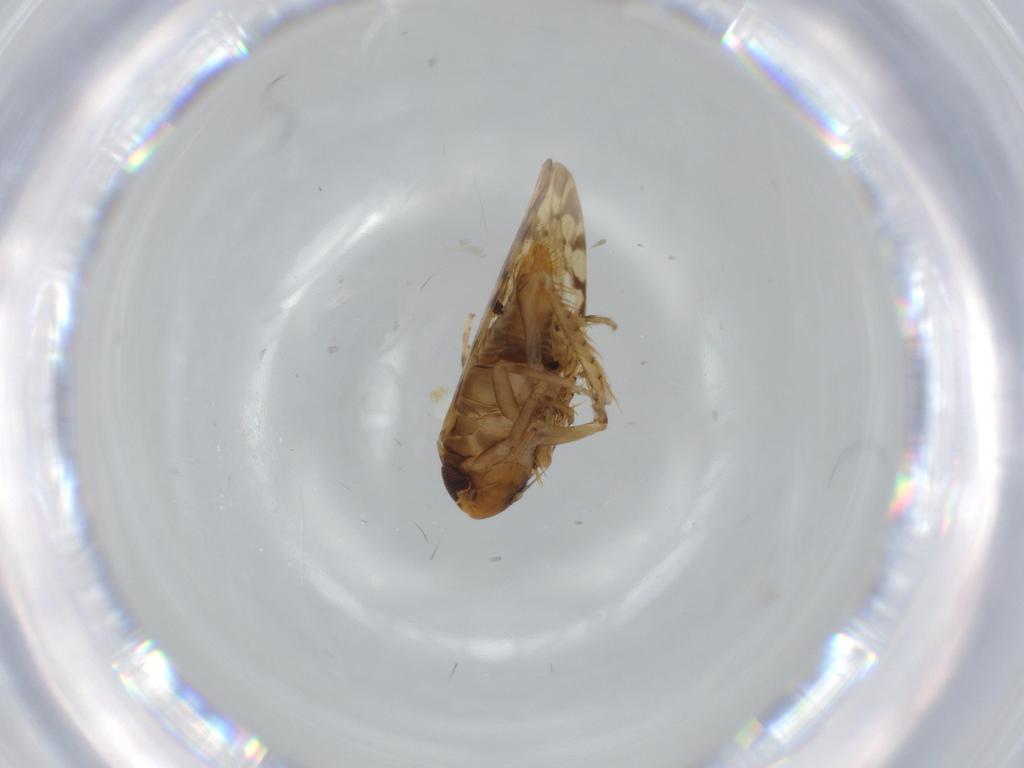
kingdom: Animalia
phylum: Arthropoda
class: Insecta
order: Hemiptera
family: Cicadellidae
